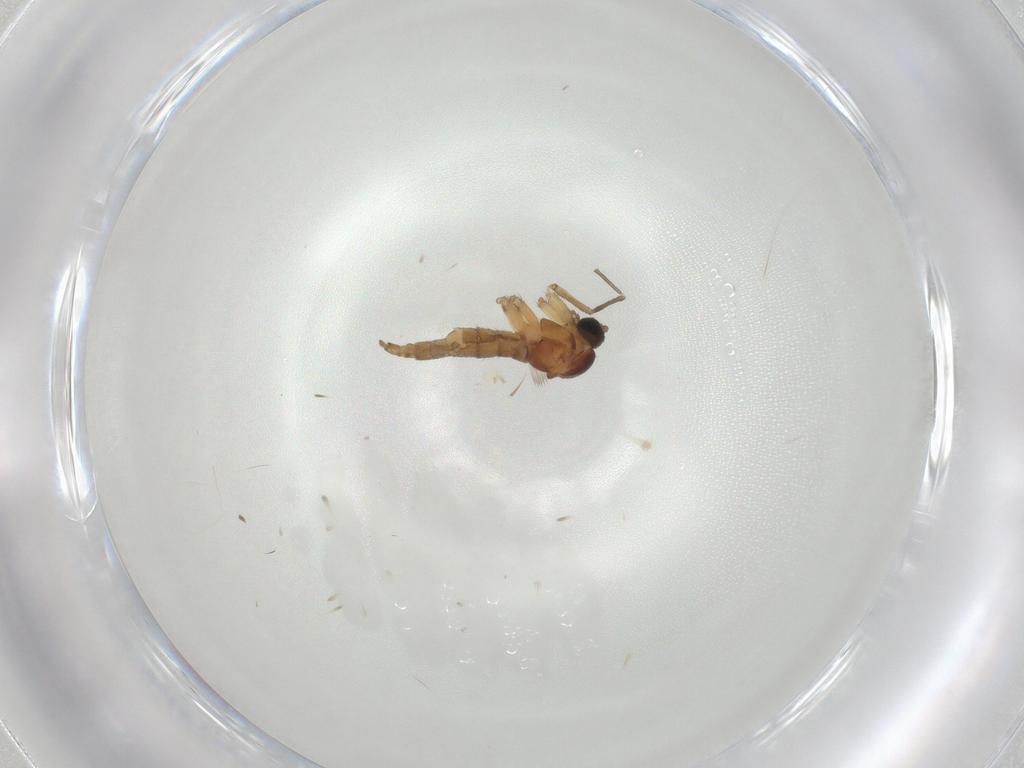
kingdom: Animalia
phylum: Arthropoda
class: Insecta
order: Diptera
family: Sciaridae
